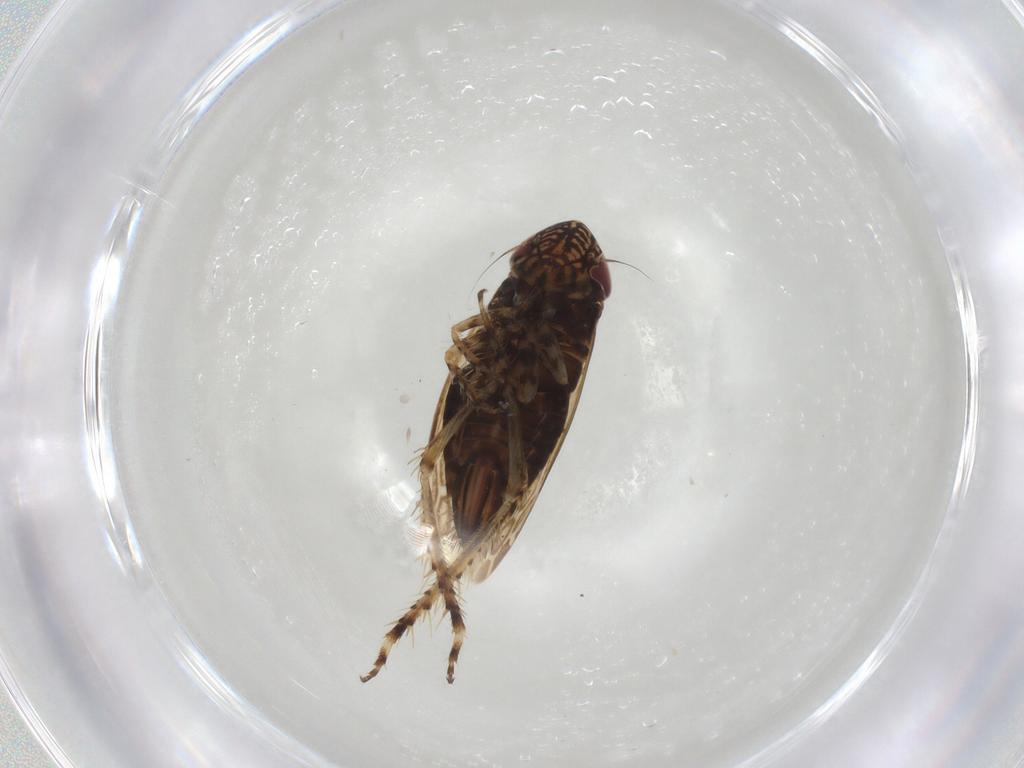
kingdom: Animalia
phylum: Arthropoda
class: Insecta
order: Hemiptera
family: Cicadellidae
